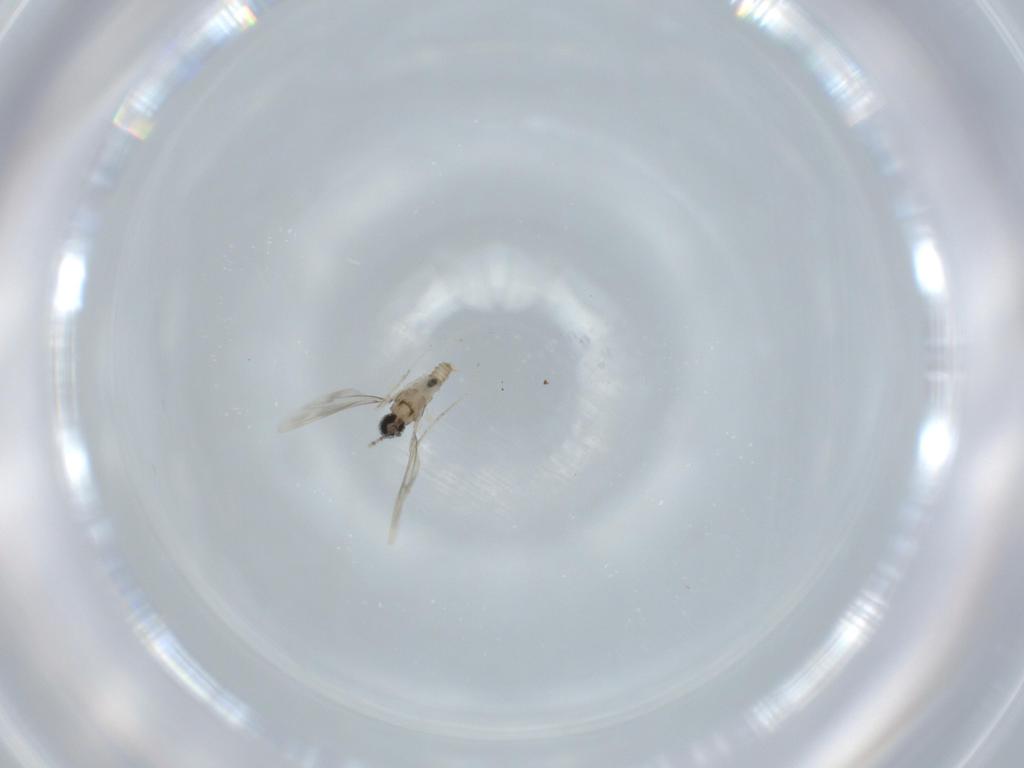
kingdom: Animalia
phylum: Arthropoda
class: Insecta
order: Diptera
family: Cecidomyiidae
